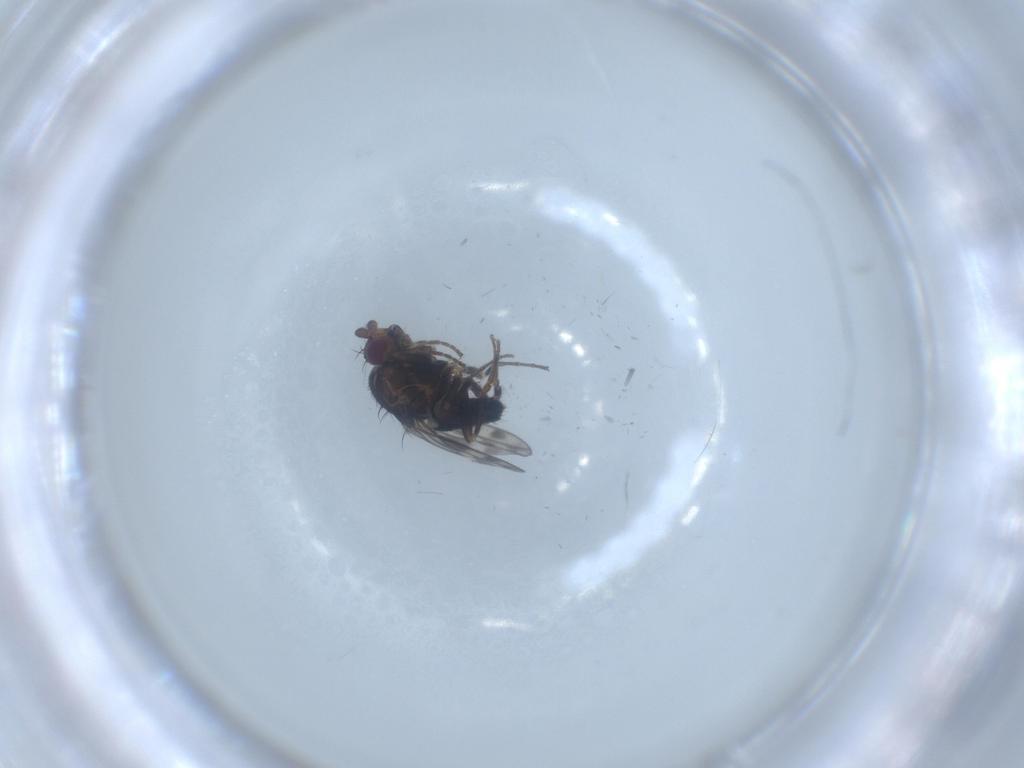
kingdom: Animalia
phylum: Arthropoda
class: Insecta
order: Diptera
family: Sphaeroceridae
